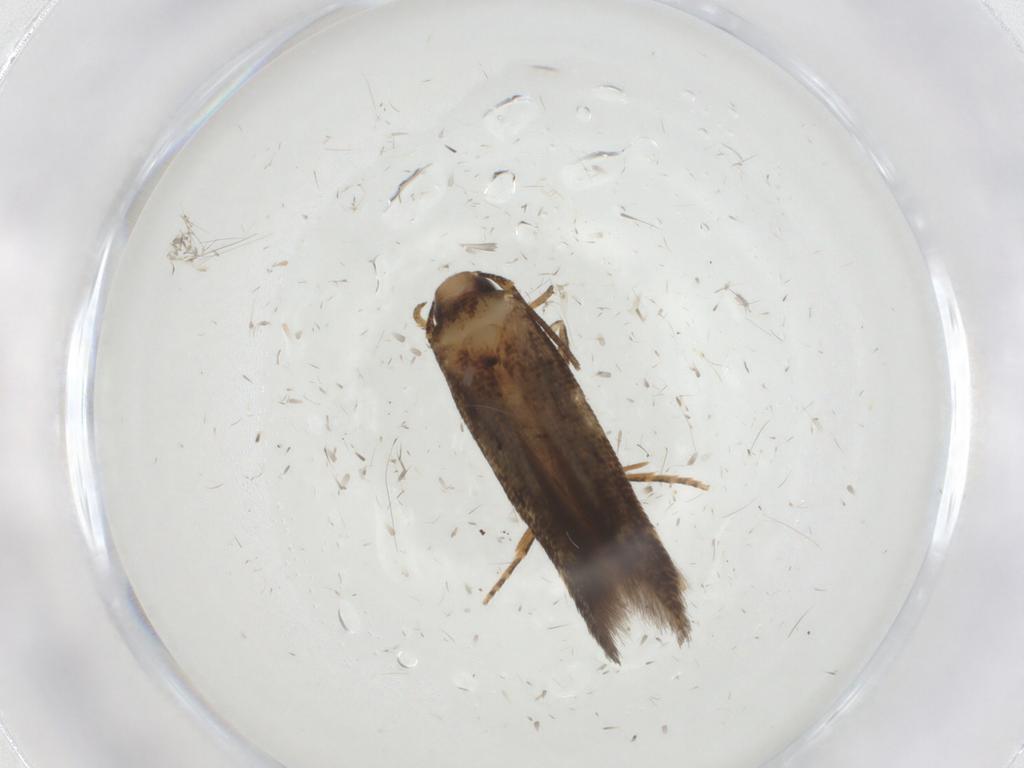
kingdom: Animalia
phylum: Arthropoda
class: Insecta
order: Lepidoptera
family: Cosmopterigidae
